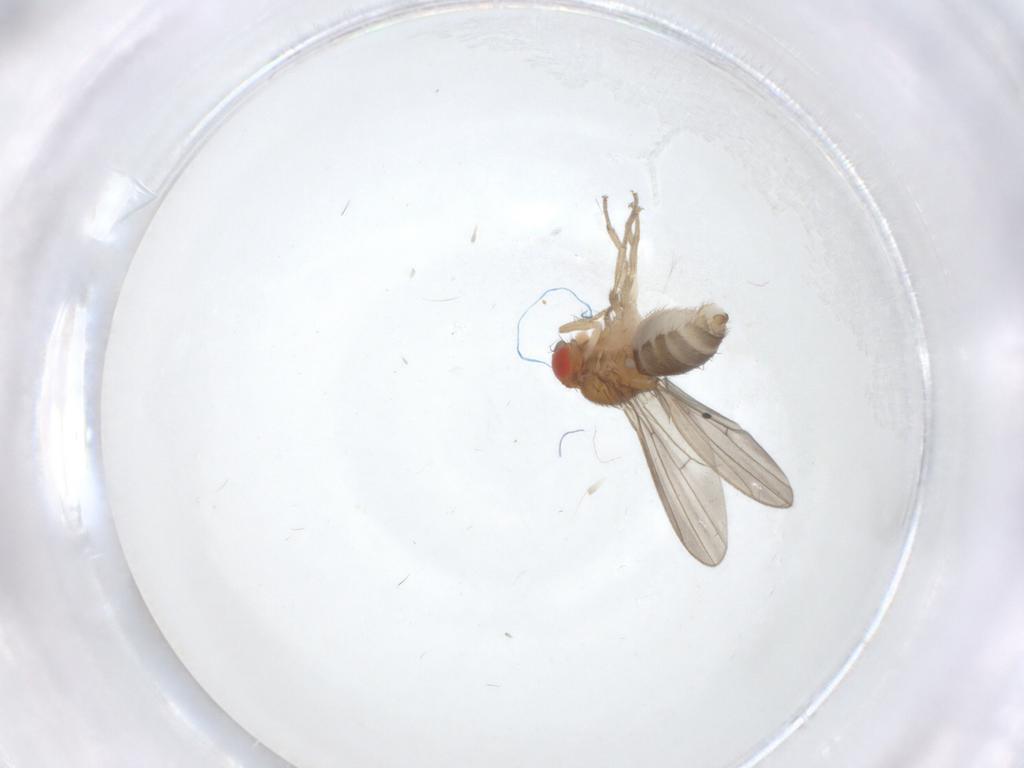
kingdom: Animalia
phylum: Arthropoda
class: Insecta
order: Diptera
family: Drosophilidae
